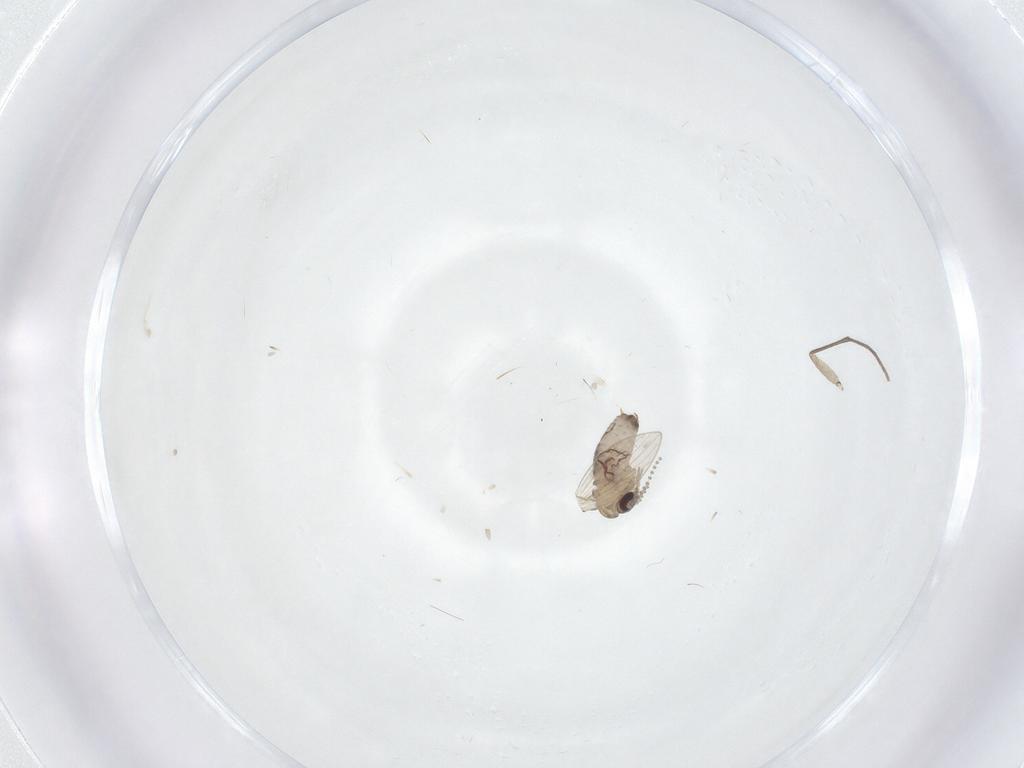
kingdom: Animalia
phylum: Arthropoda
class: Insecta
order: Diptera
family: Psychodidae
